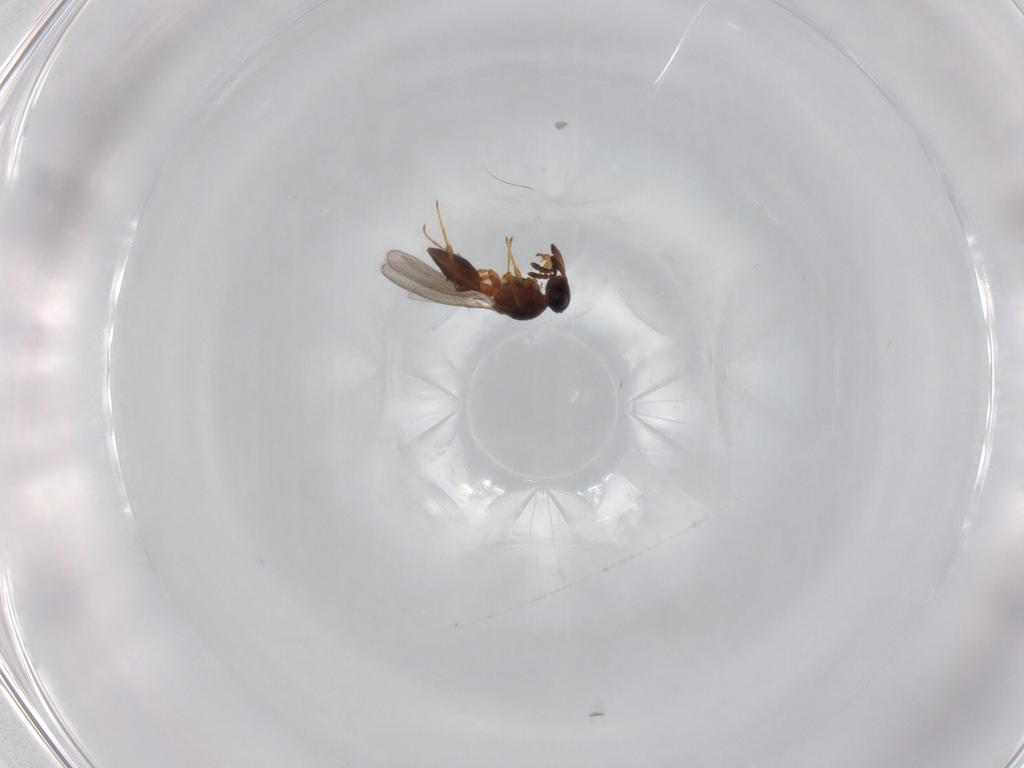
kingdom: Animalia
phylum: Arthropoda
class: Insecta
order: Hymenoptera
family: Platygastridae
